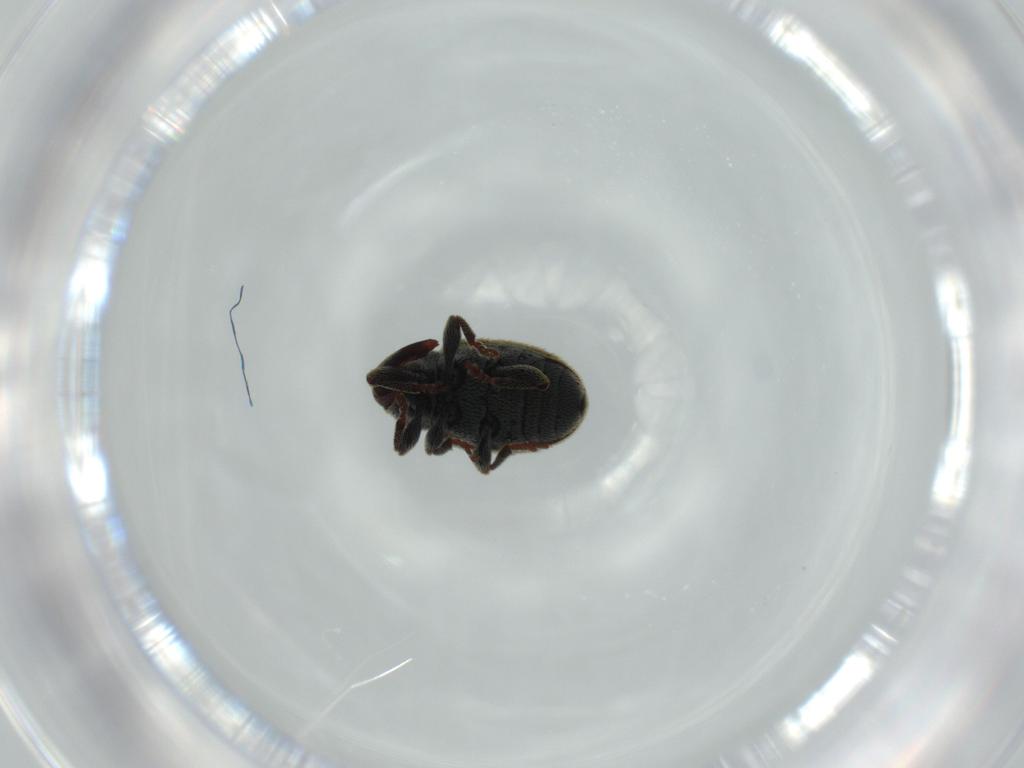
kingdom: Animalia
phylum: Arthropoda
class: Insecta
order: Coleoptera
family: Curculionidae
